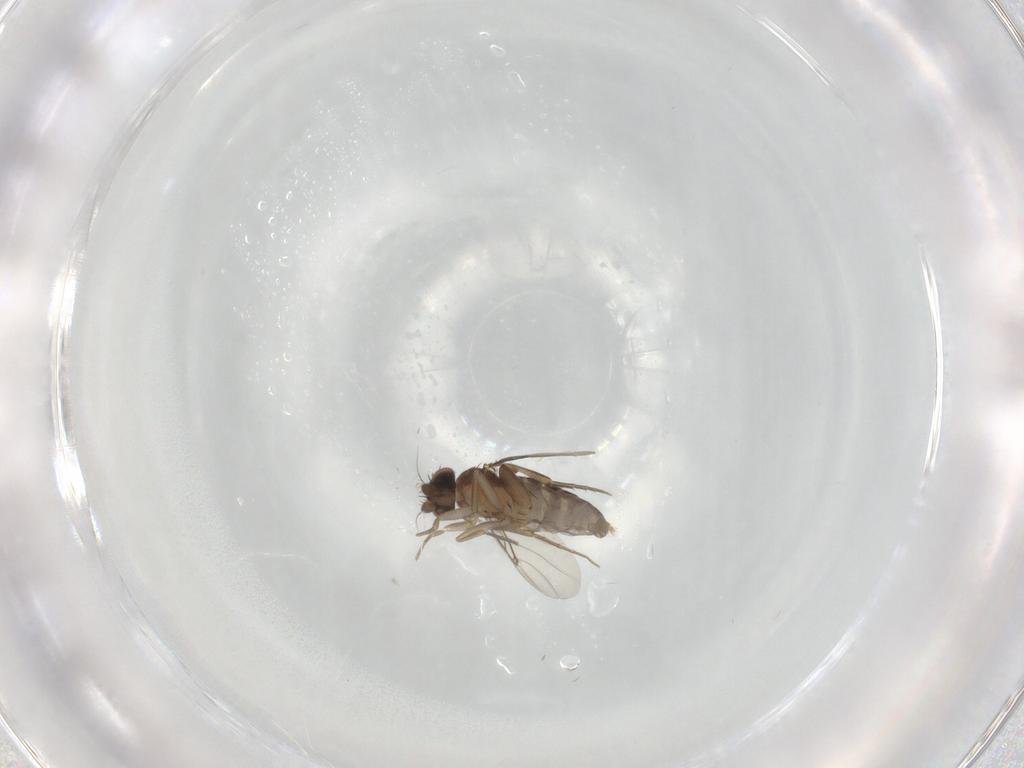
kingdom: Animalia
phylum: Arthropoda
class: Insecta
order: Diptera
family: Phoridae
